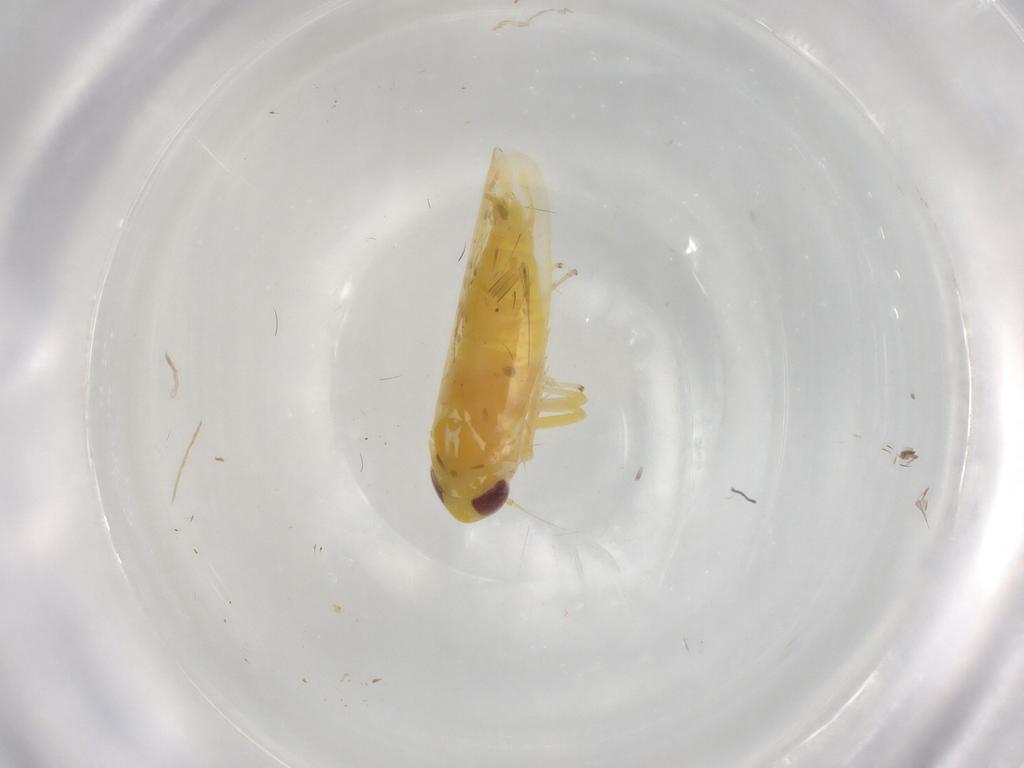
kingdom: Animalia
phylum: Arthropoda
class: Insecta
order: Hemiptera
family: Cicadellidae
